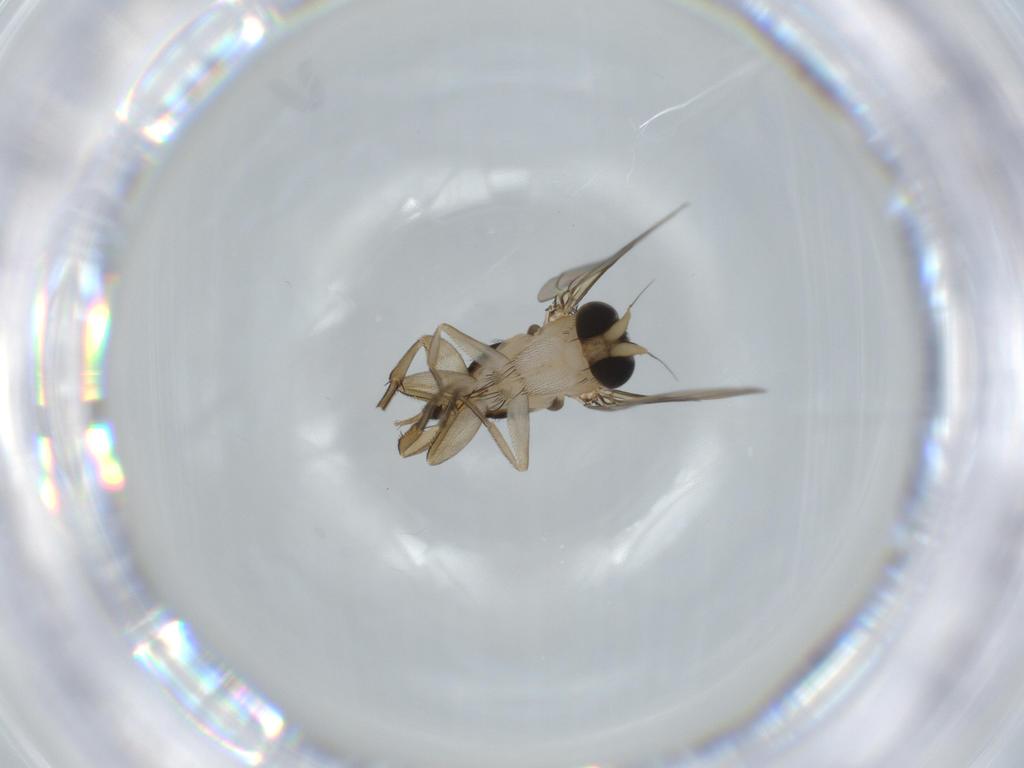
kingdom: Animalia
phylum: Arthropoda
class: Insecta
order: Diptera
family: Phoridae
